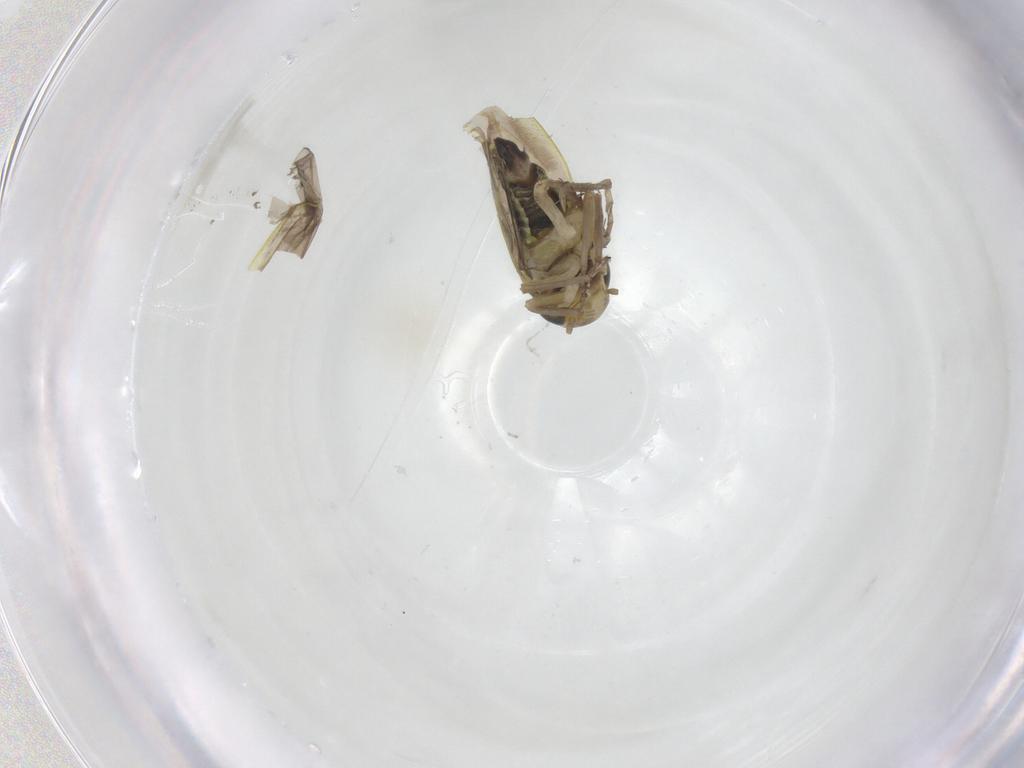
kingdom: Animalia
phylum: Arthropoda
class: Insecta
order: Hemiptera
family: Cicadellidae
